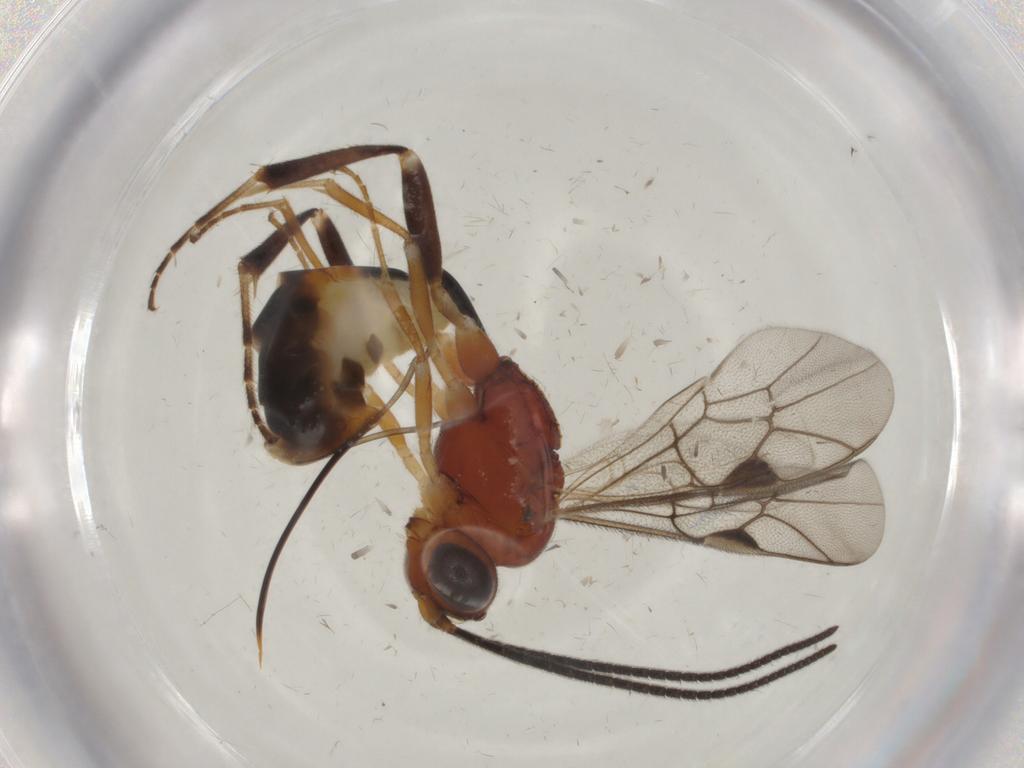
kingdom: Animalia
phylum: Arthropoda
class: Insecta
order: Hymenoptera
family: Ichneumonidae
